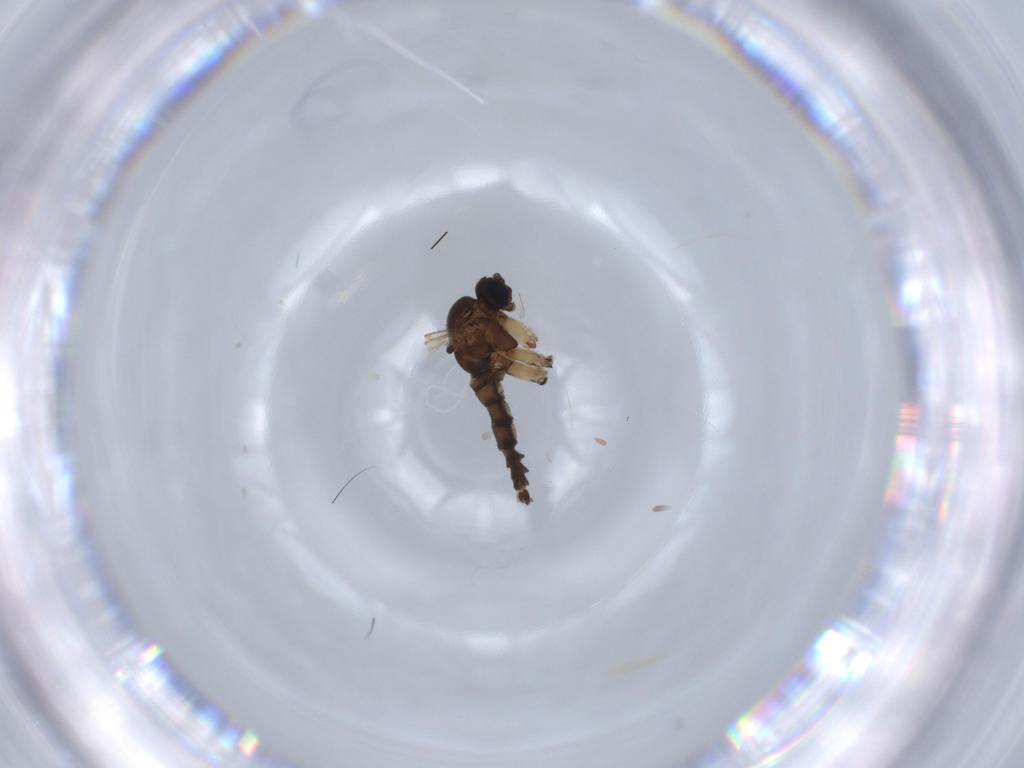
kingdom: Animalia
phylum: Arthropoda
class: Insecta
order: Diptera
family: Sciaridae
